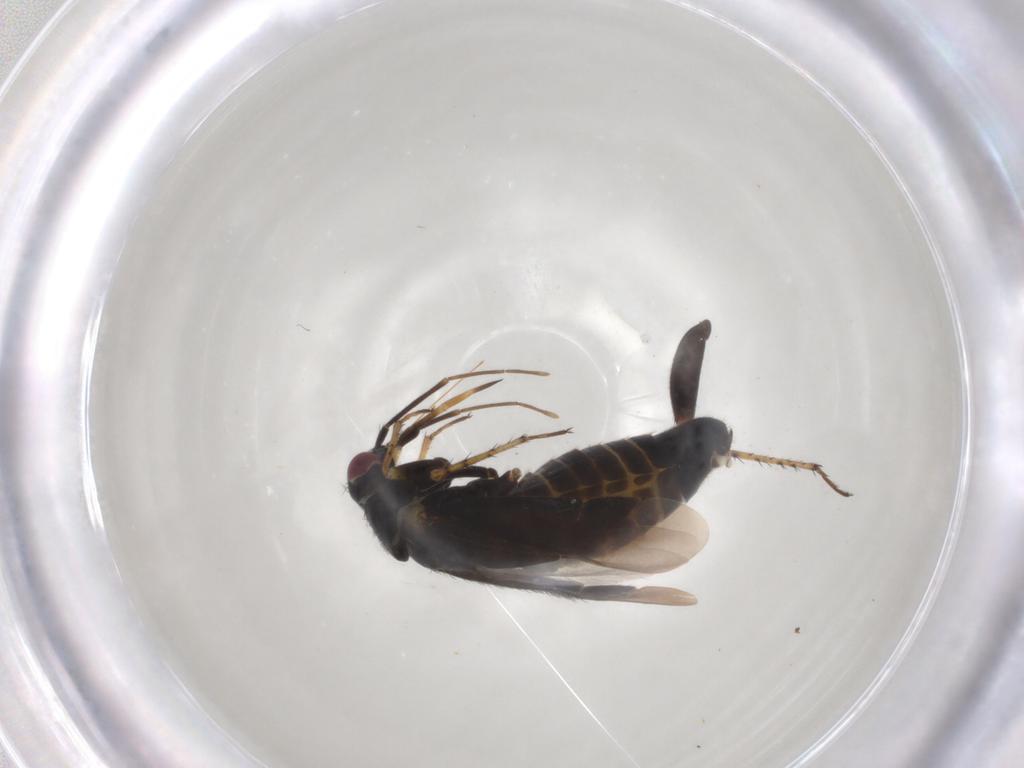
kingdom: Animalia
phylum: Arthropoda
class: Insecta
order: Hemiptera
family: Miridae
